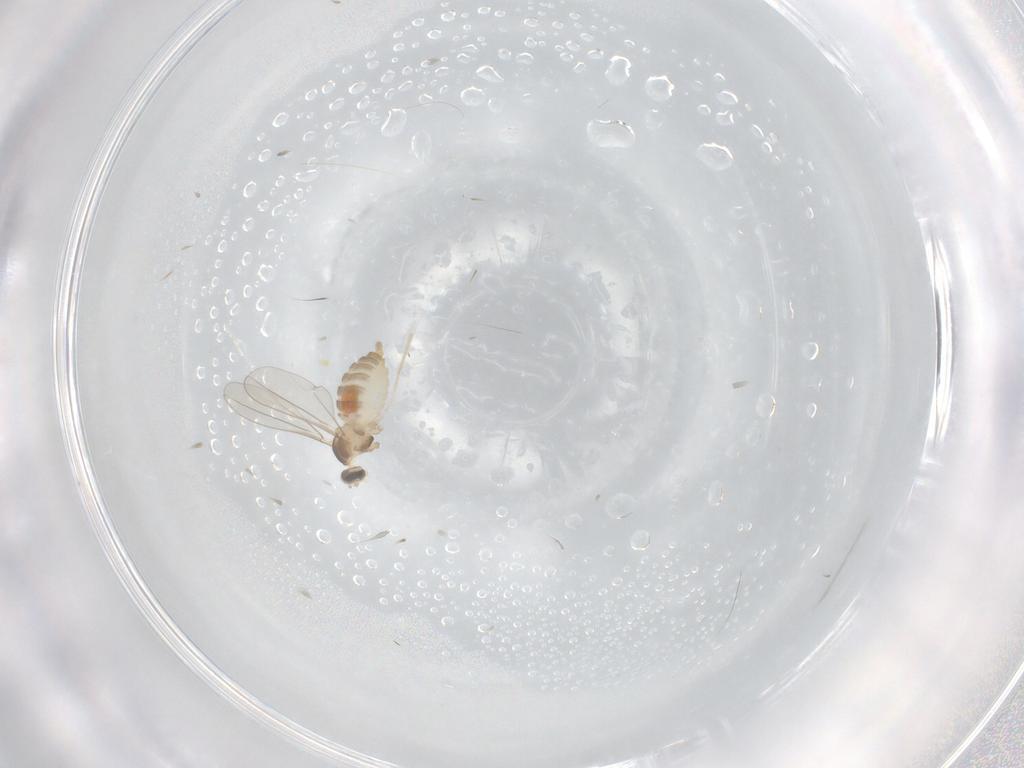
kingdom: Animalia
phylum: Arthropoda
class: Insecta
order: Diptera
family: Cecidomyiidae
